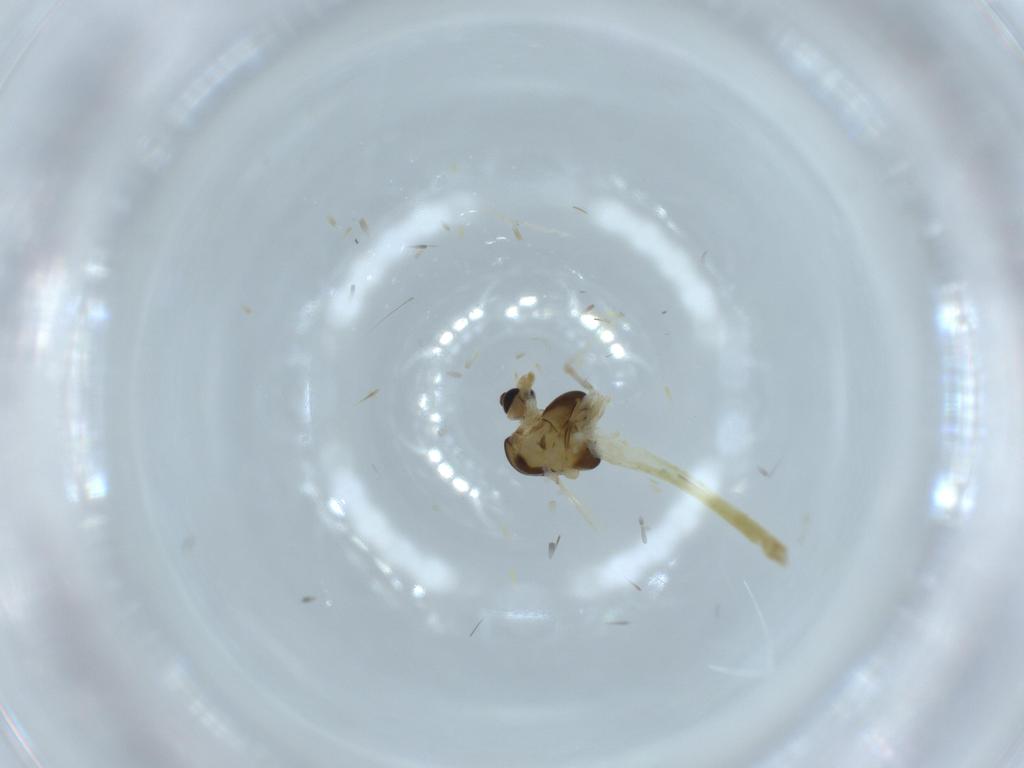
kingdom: Animalia
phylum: Arthropoda
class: Insecta
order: Diptera
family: Chironomidae
